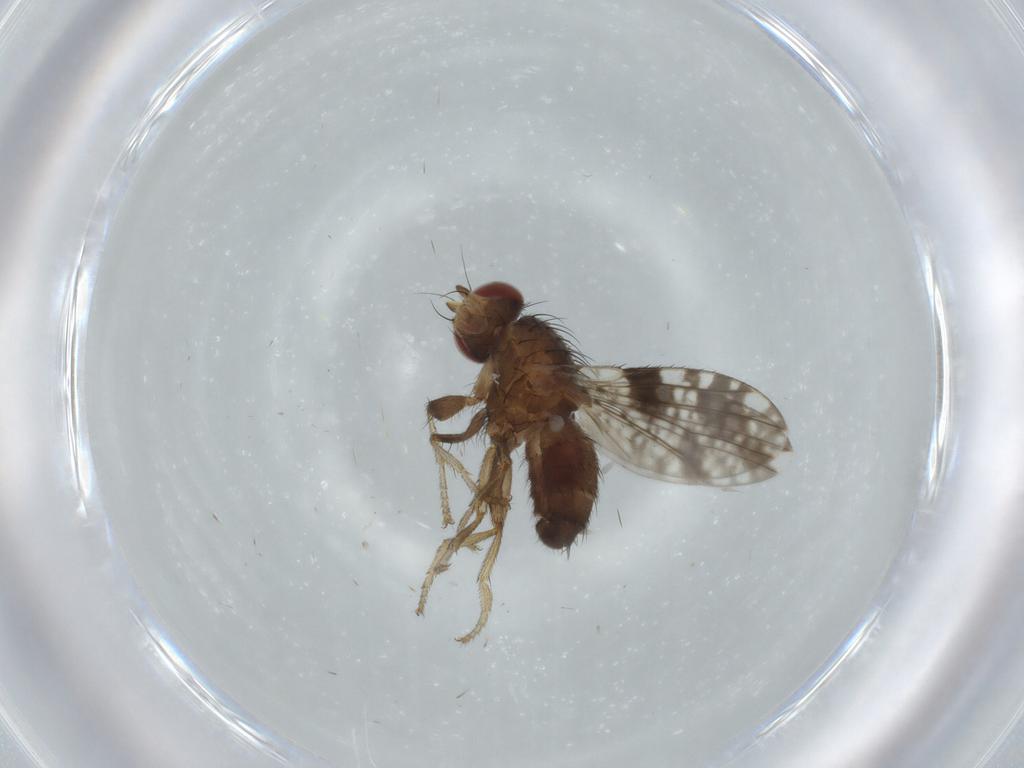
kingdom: Animalia
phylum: Arthropoda
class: Insecta
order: Diptera
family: Tephritidae
